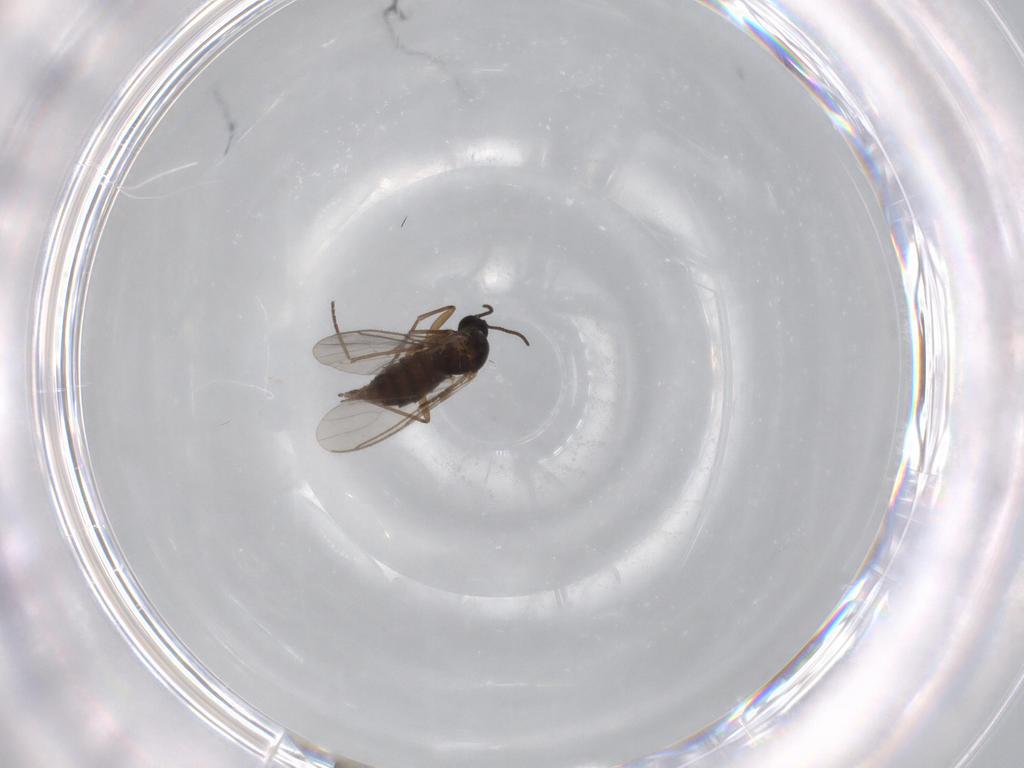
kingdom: Animalia
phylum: Arthropoda
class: Insecta
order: Diptera
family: Sciaridae
